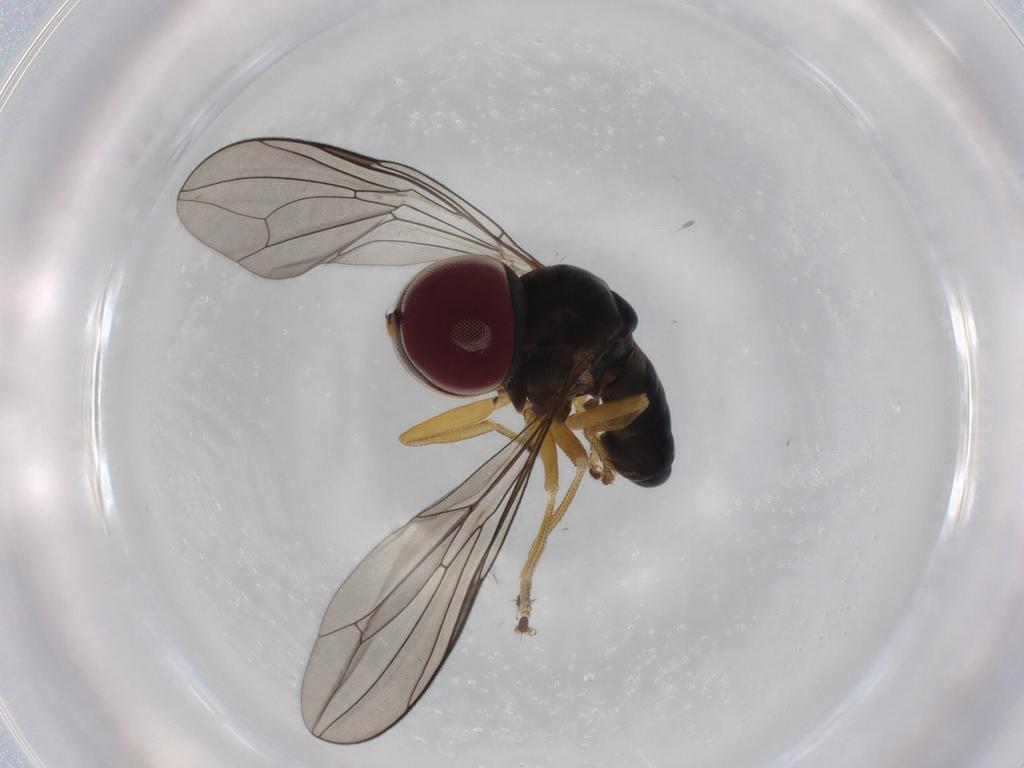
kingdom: Animalia
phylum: Arthropoda
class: Insecta
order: Diptera
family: Pipunculidae
